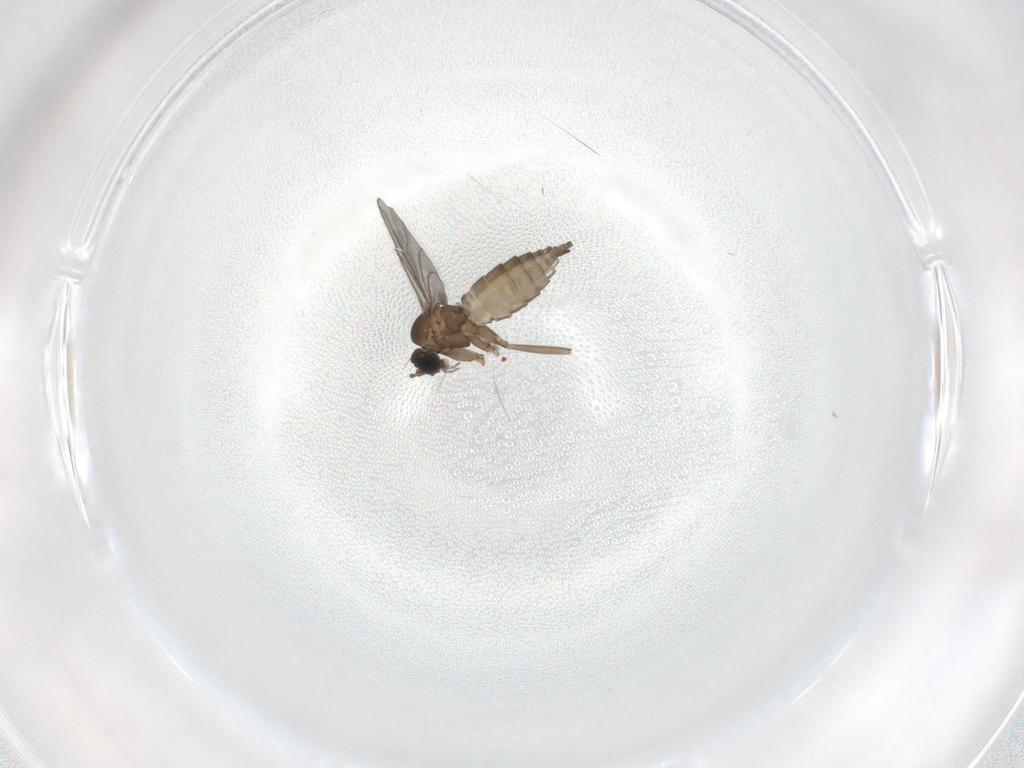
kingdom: Animalia
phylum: Arthropoda
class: Insecta
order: Diptera
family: Sciaridae
